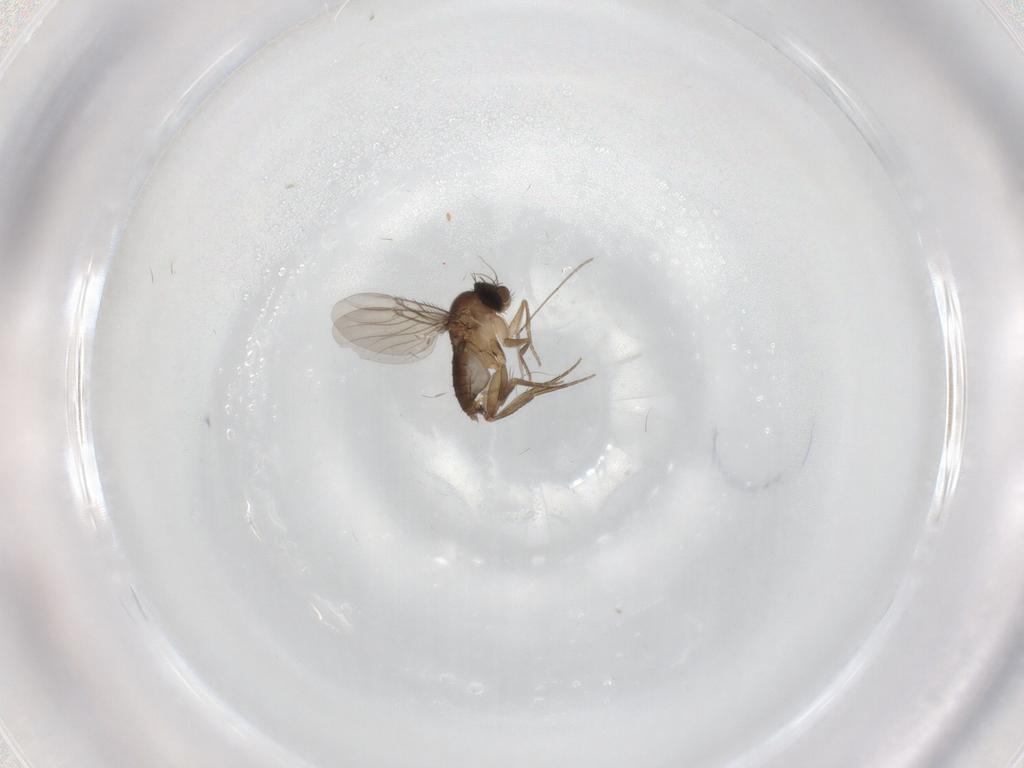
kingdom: Animalia
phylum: Arthropoda
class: Insecta
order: Diptera
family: Phoridae
